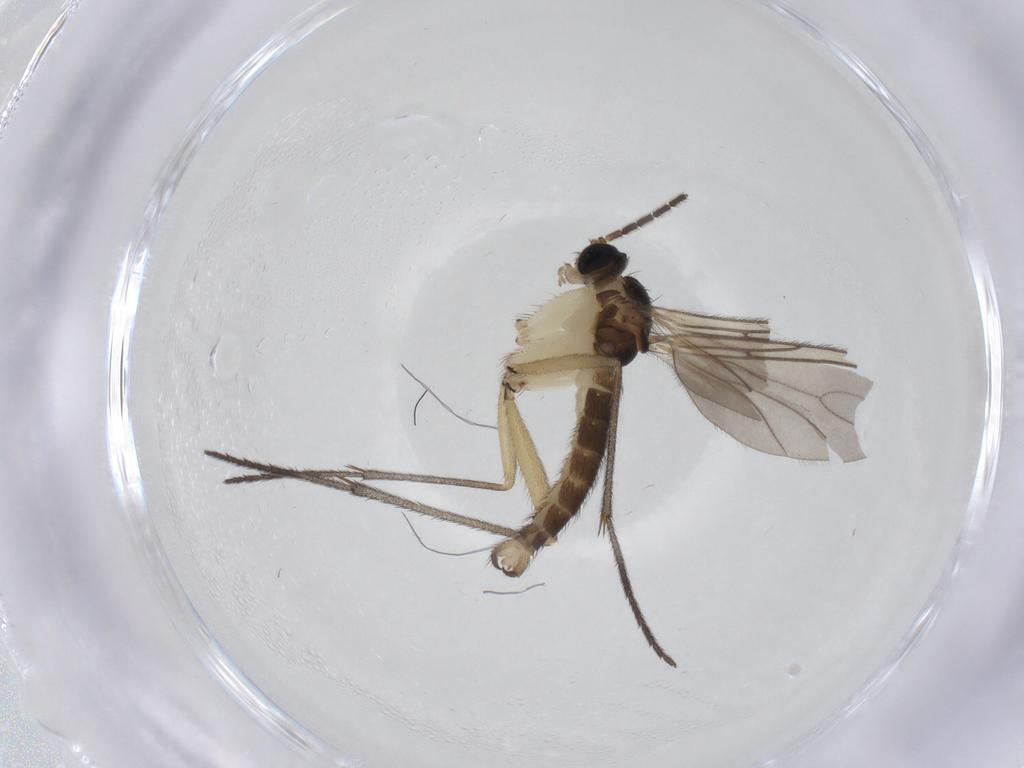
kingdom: Animalia
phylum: Arthropoda
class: Insecta
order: Diptera
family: Sciaridae
